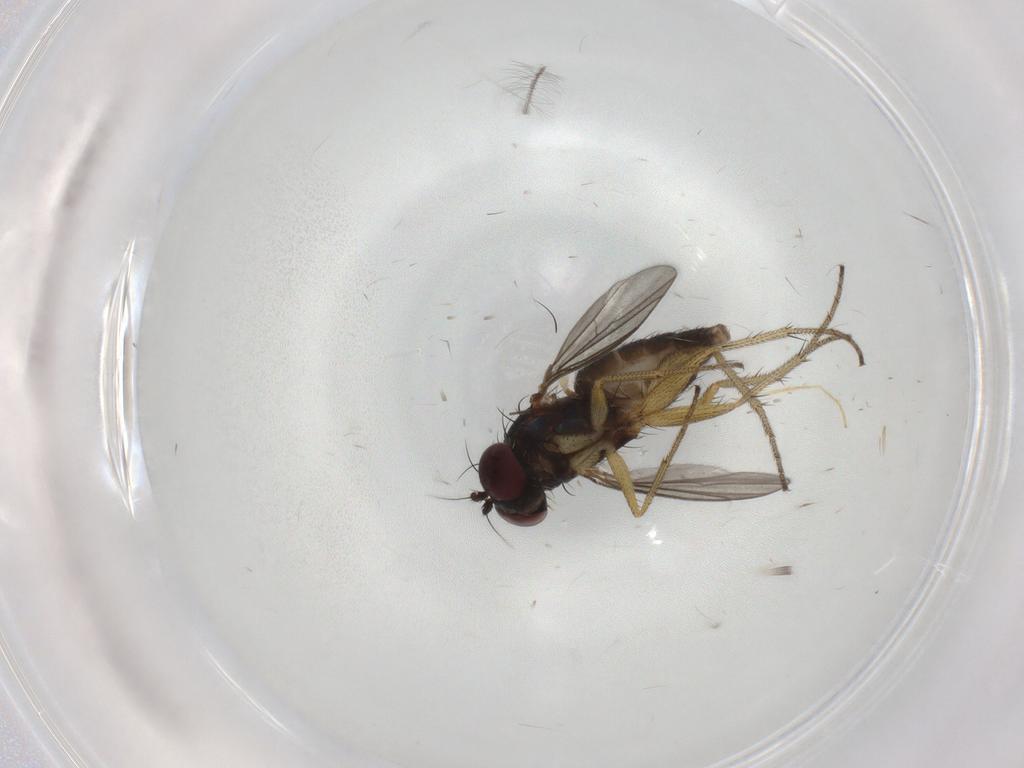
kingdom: Animalia
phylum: Arthropoda
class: Insecta
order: Diptera
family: Chironomidae
